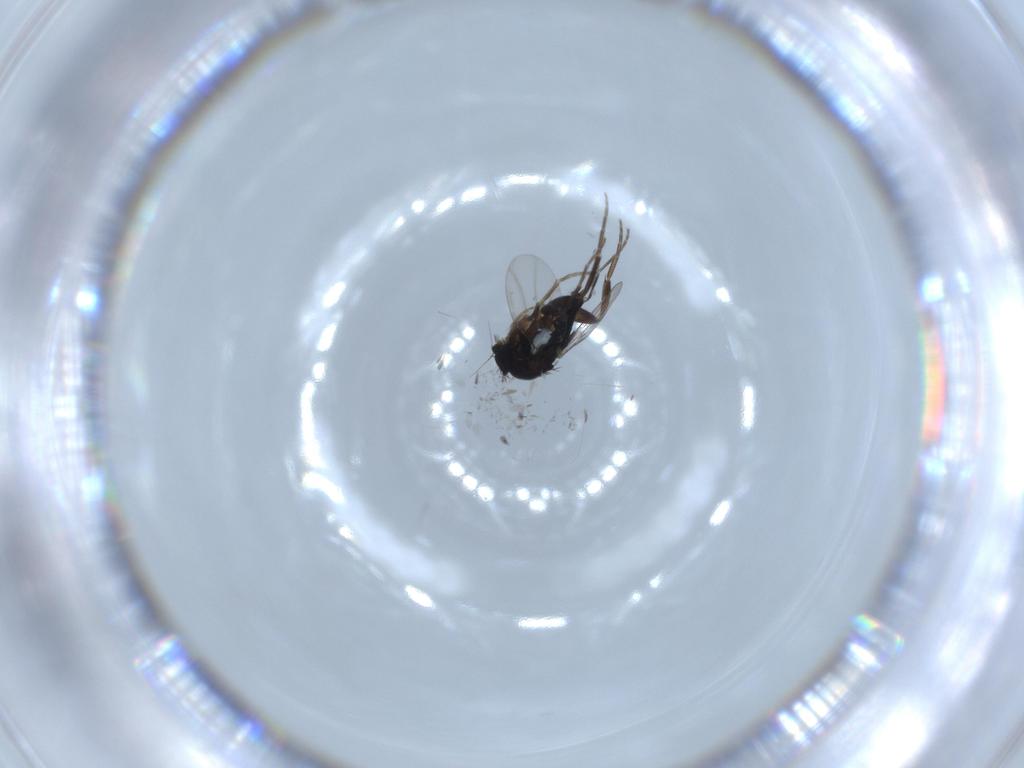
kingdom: Animalia
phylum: Arthropoda
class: Insecta
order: Diptera
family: Phoridae
